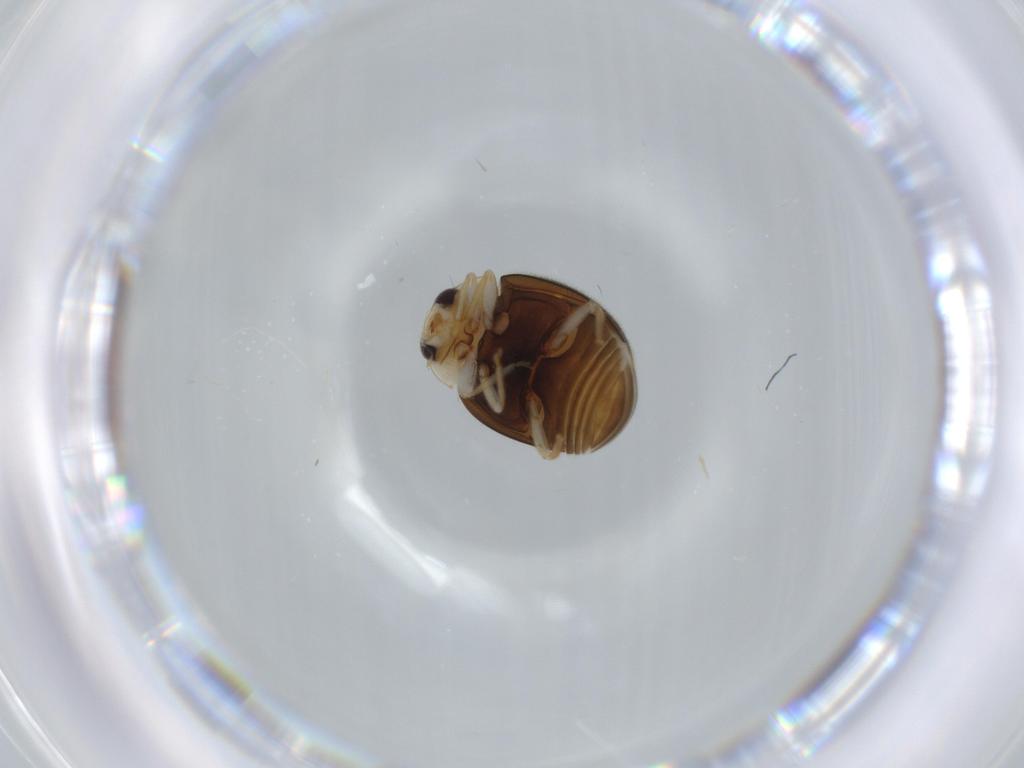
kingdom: Animalia
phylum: Arthropoda
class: Insecta
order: Coleoptera
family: Coccinellidae
